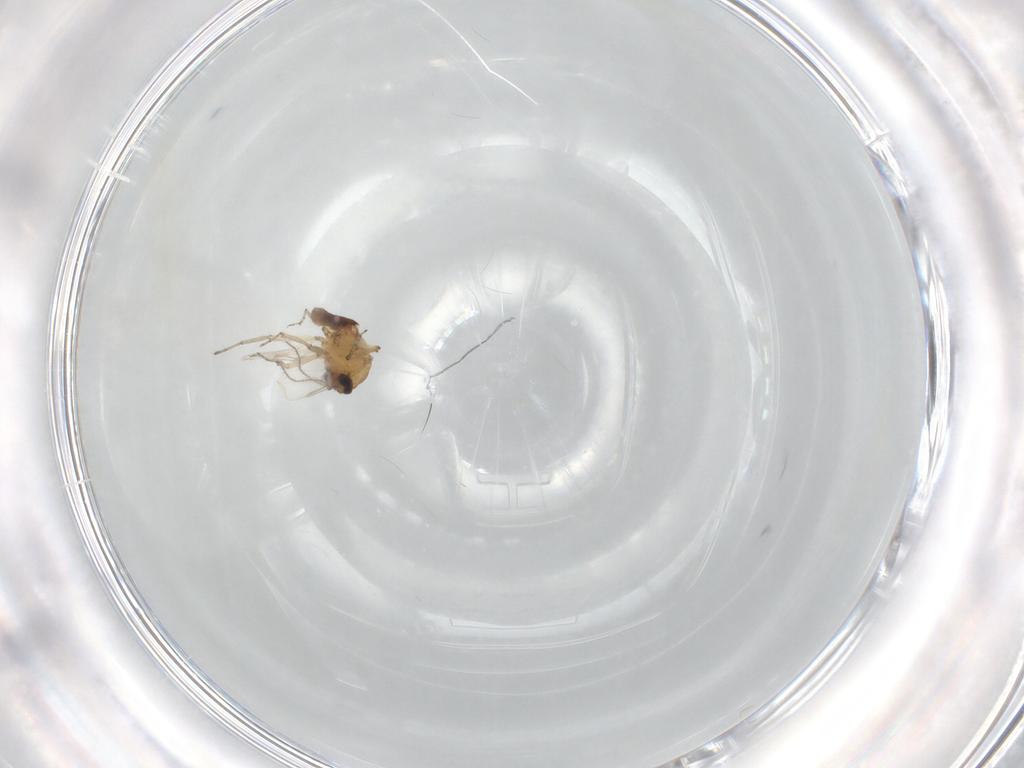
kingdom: Animalia
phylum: Arthropoda
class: Insecta
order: Diptera
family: Ceratopogonidae
